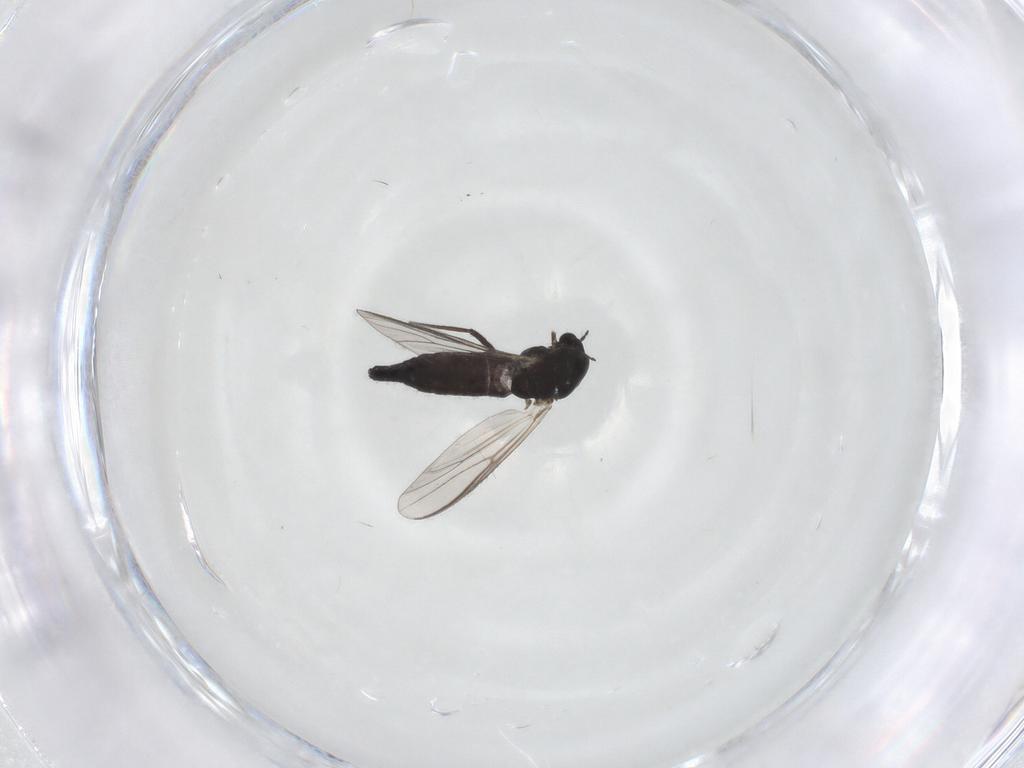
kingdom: Animalia
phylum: Arthropoda
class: Insecta
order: Diptera
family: Chironomidae
